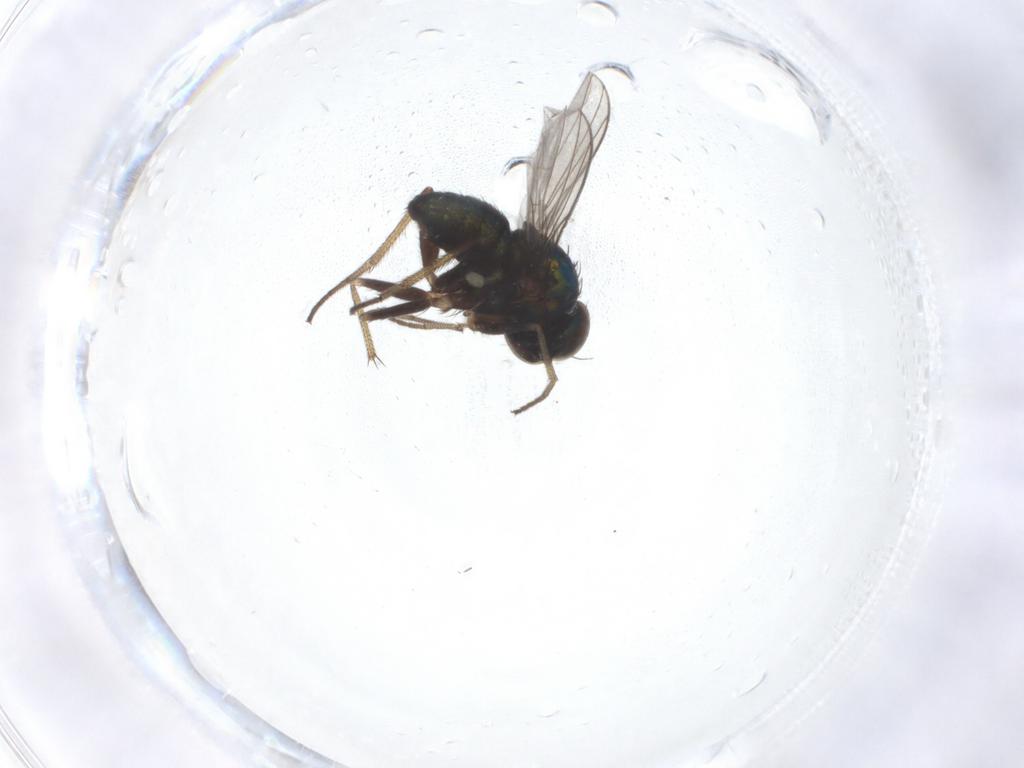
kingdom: Animalia
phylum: Arthropoda
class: Insecta
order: Diptera
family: Dolichopodidae
